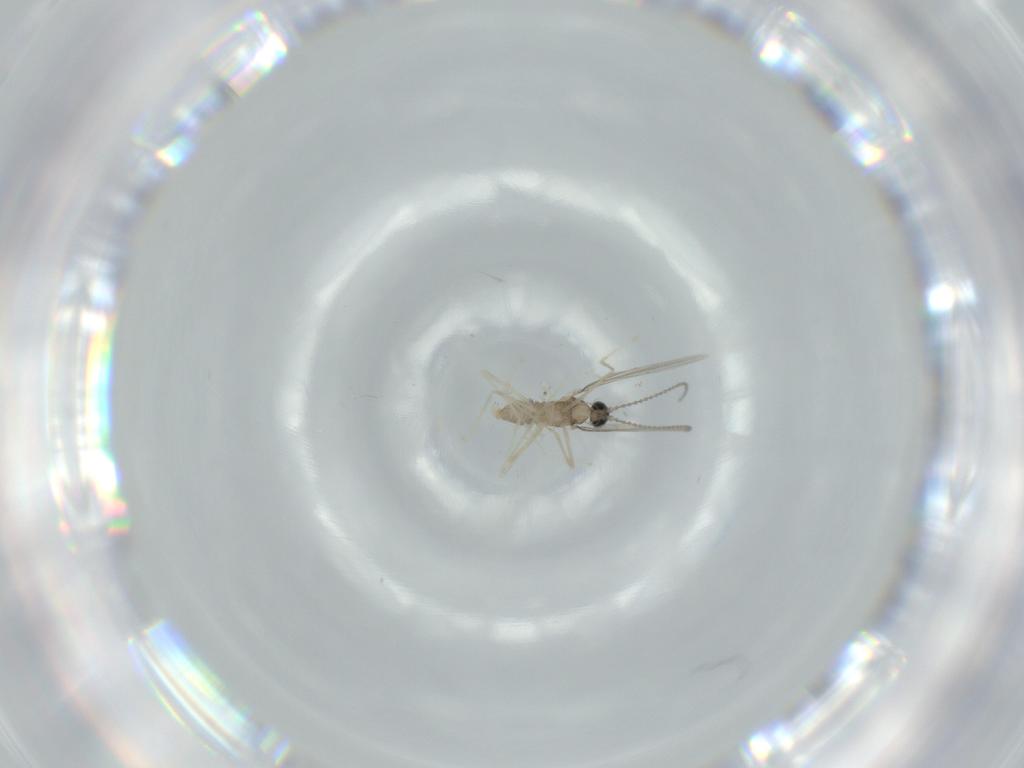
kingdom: Animalia
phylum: Arthropoda
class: Insecta
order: Diptera
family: Cecidomyiidae
